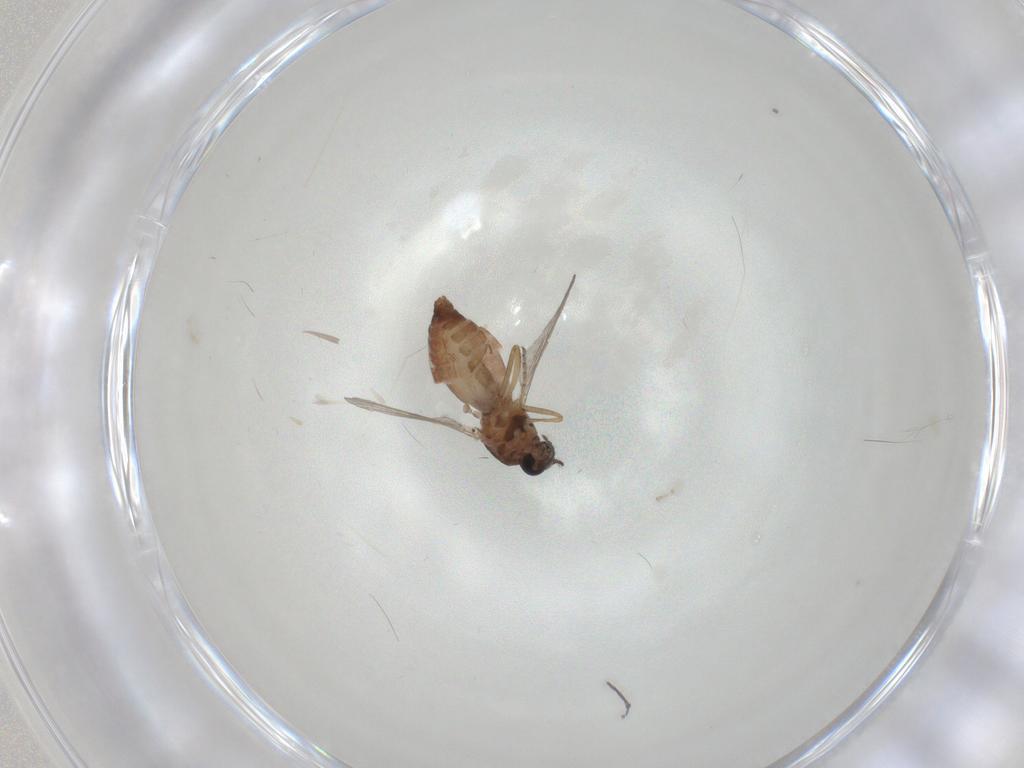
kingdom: Animalia
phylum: Arthropoda
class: Insecta
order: Diptera
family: Ceratopogonidae
